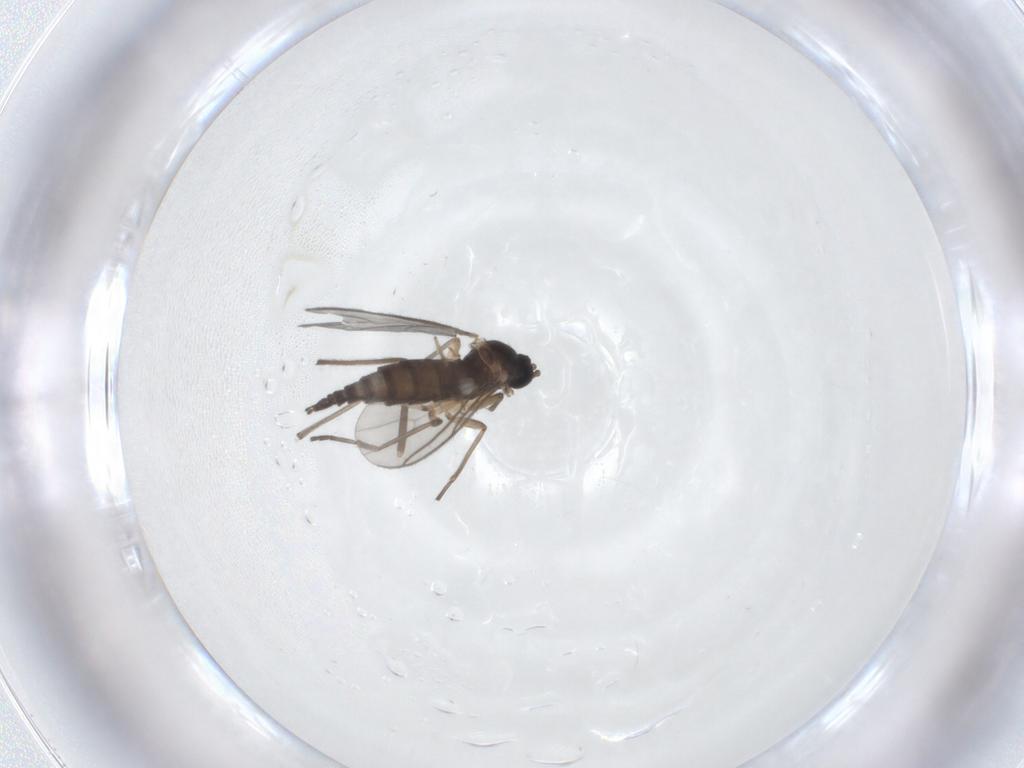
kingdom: Animalia
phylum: Arthropoda
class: Insecta
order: Diptera
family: Sciaridae
